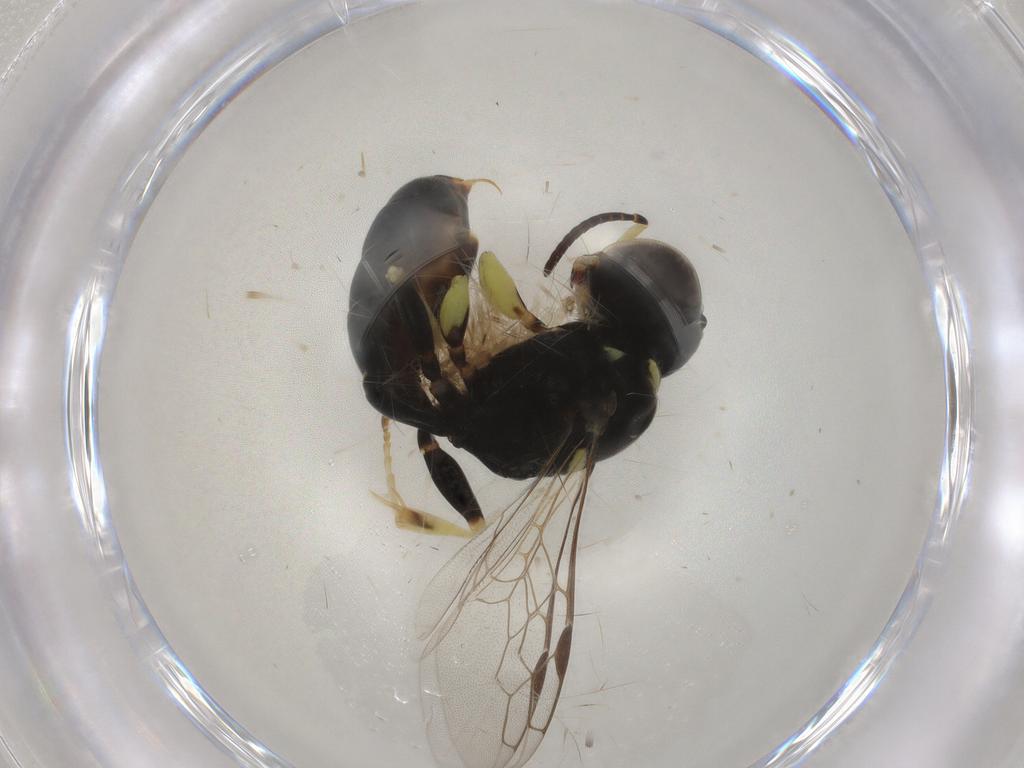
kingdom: Animalia
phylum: Arthropoda
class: Insecta
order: Hymenoptera
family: Crabronidae
